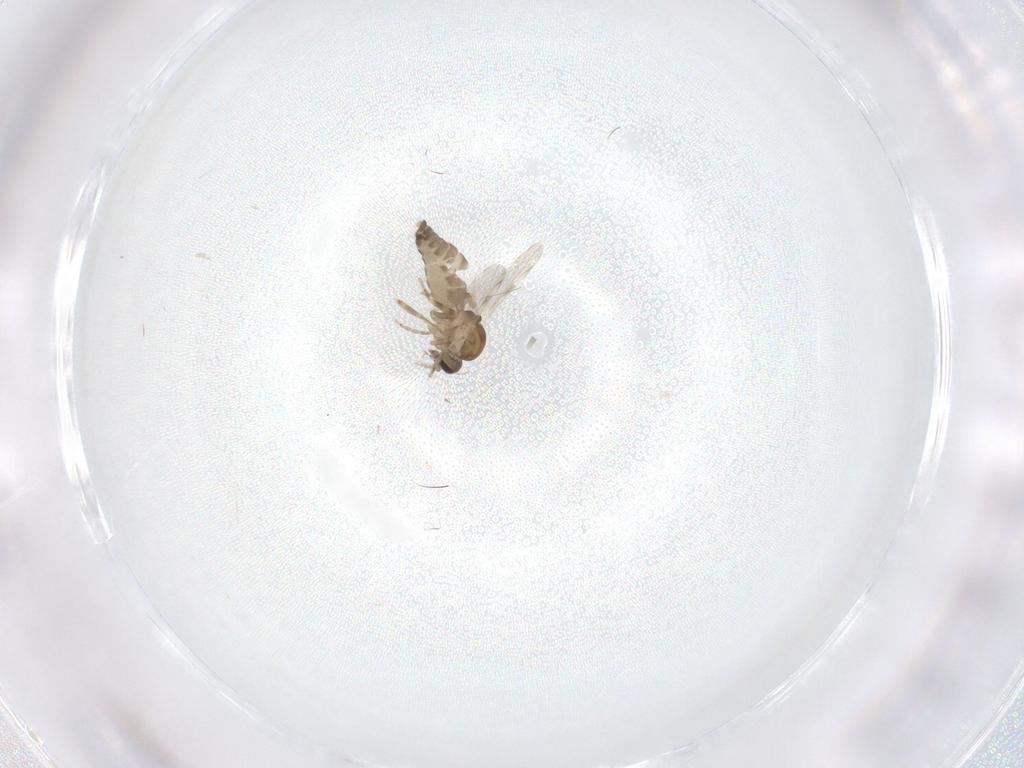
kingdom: Animalia
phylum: Arthropoda
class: Insecta
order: Diptera
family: Ceratopogonidae
